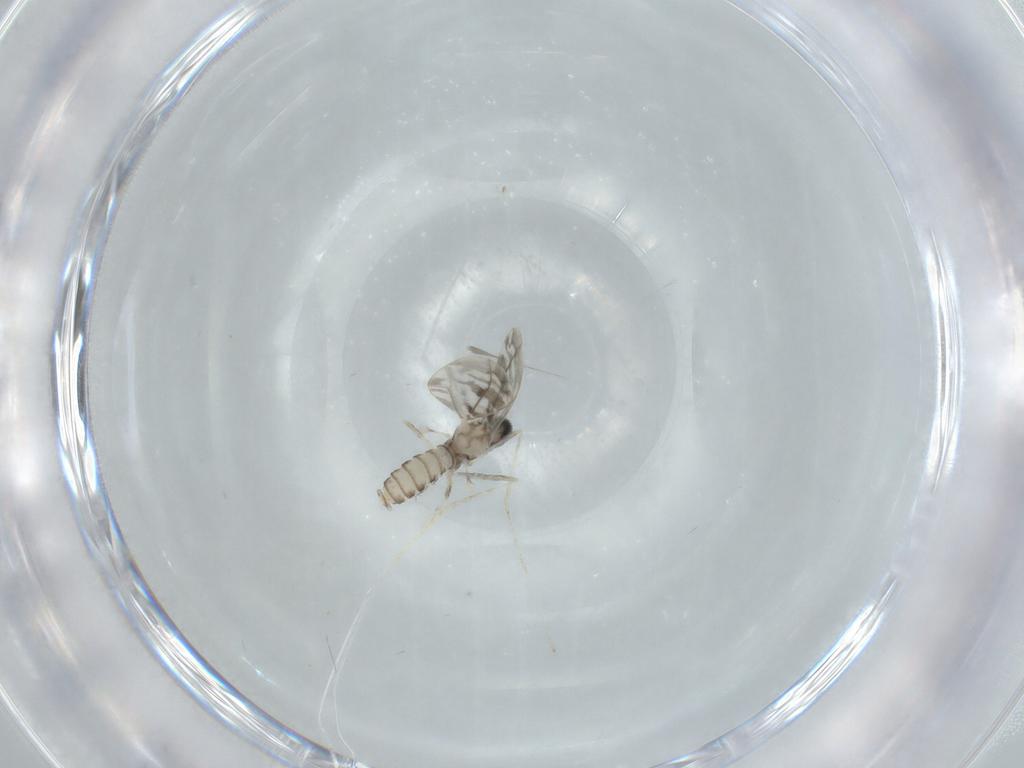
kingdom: Animalia
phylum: Arthropoda
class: Insecta
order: Diptera
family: Cecidomyiidae
